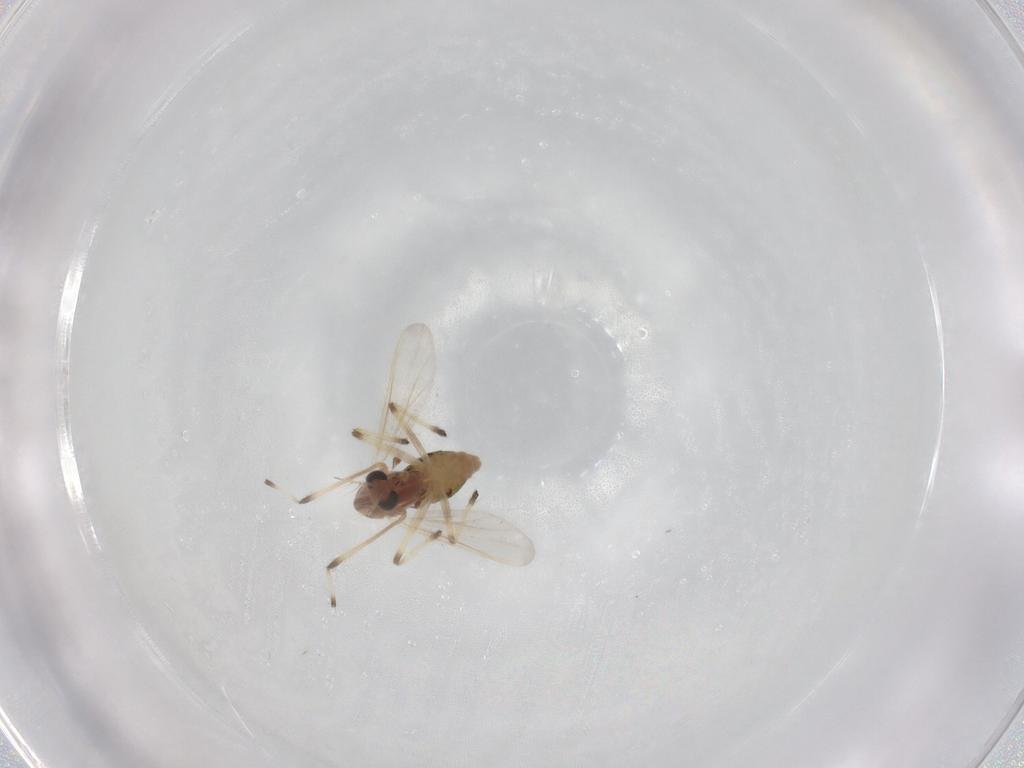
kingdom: Animalia
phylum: Arthropoda
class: Insecta
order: Diptera
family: Chironomidae
